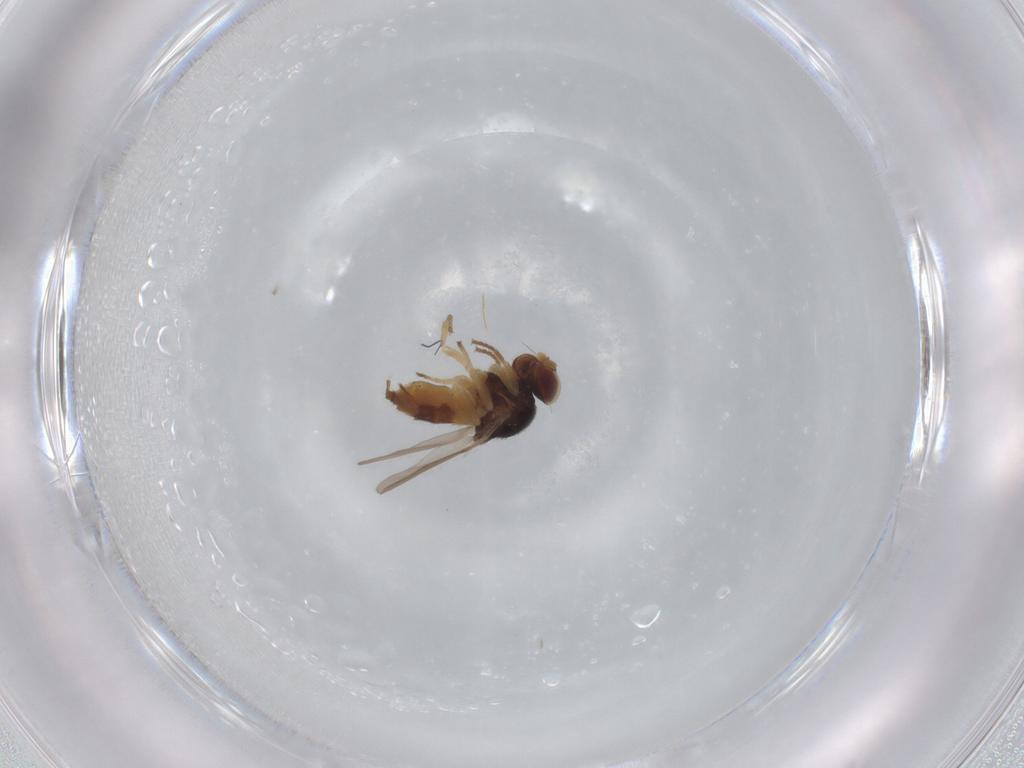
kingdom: Animalia
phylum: Arthropoda
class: Insecta
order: Diptera
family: Chloropidae
